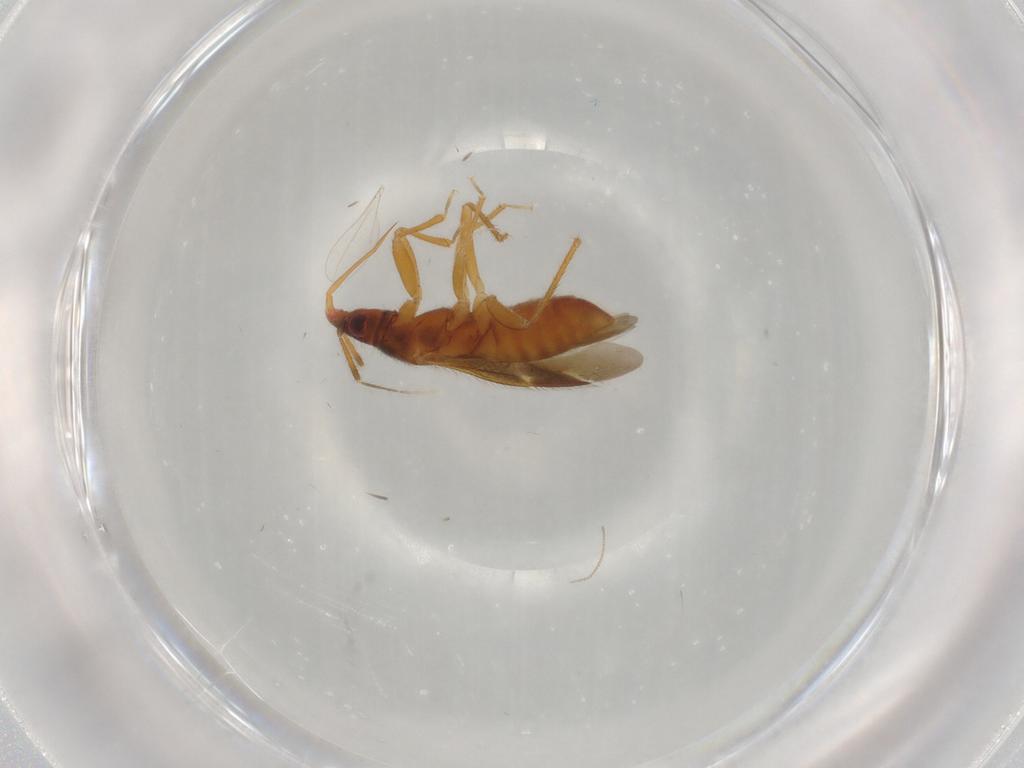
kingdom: Animalia
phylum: Arthropoda
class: Insecta
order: Hemiptera
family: Lasiochilidae
